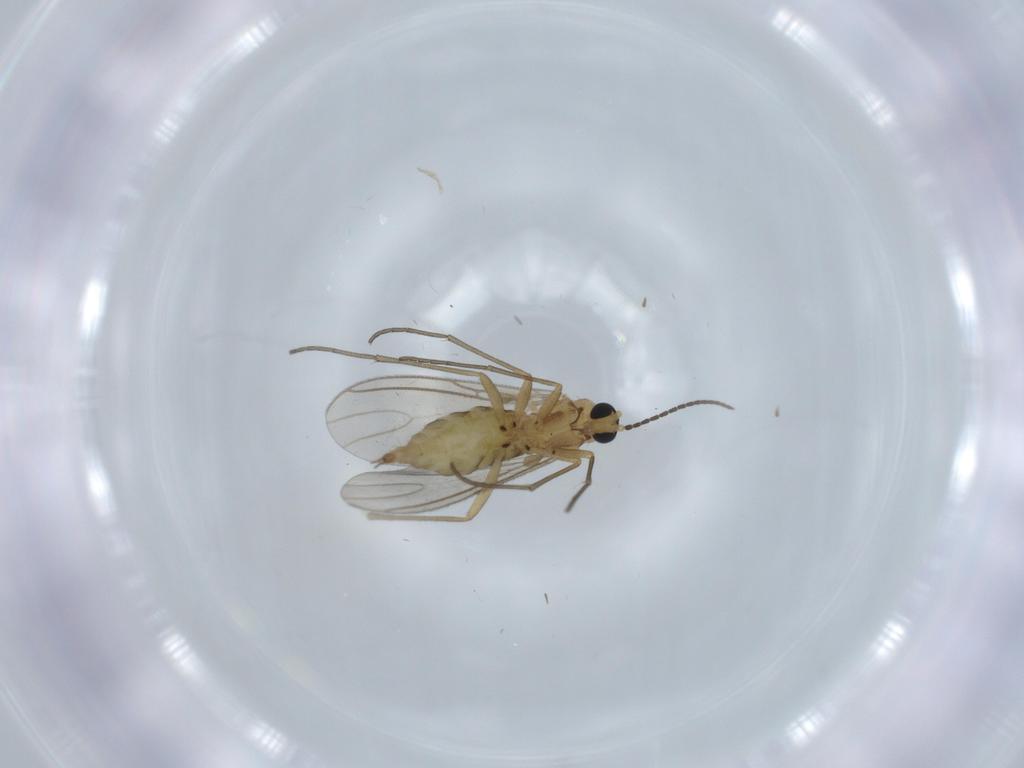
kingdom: Animalia
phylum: Arthropoda
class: Insecta
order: Diptera
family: Sciaridae
